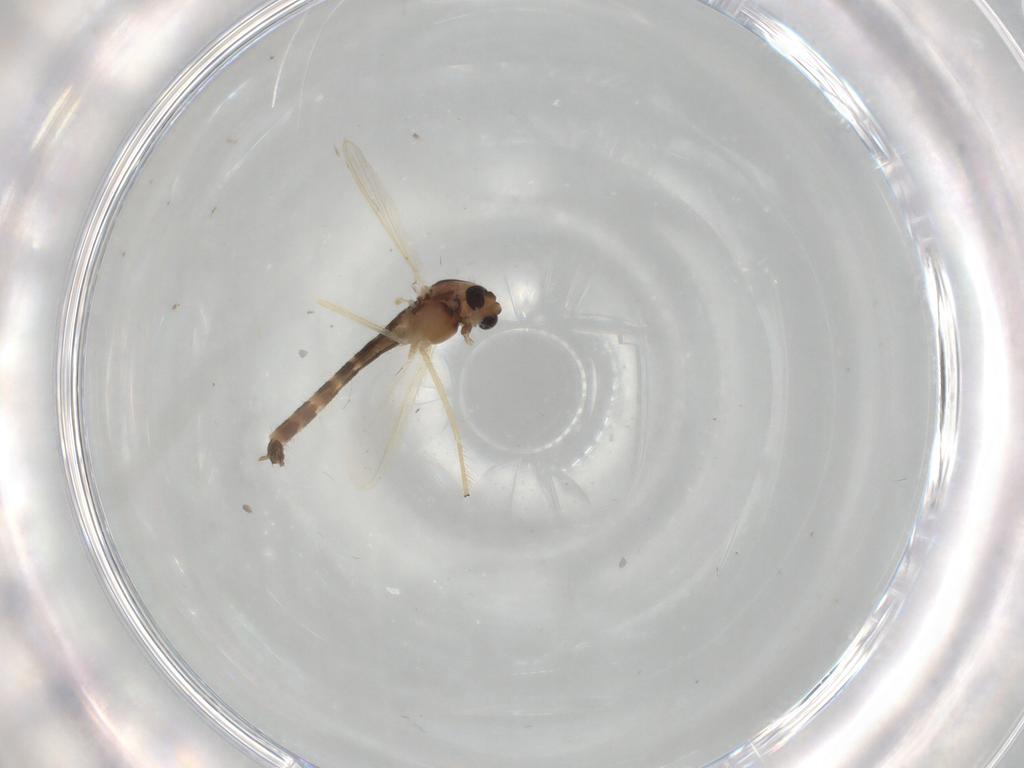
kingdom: Animalia
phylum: Arthropoda
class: Insecta
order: Diptera
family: Chironomidae
